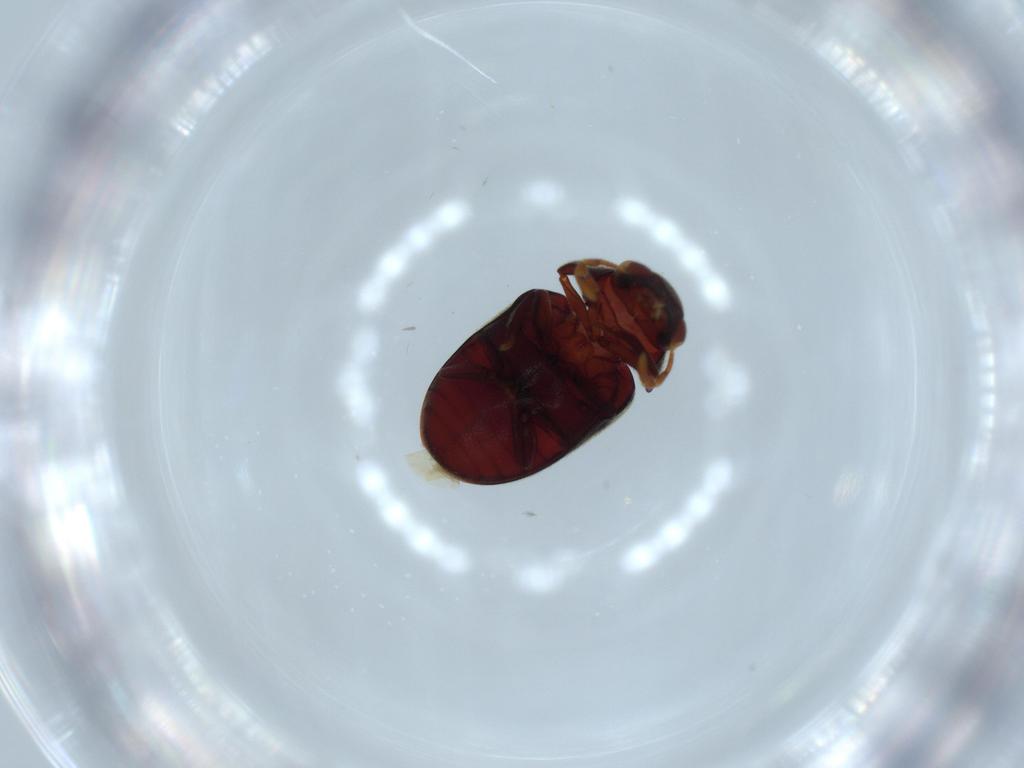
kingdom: Animalia
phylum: Arthropoda
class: Insecta
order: Coleoptera
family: Ptinidae
